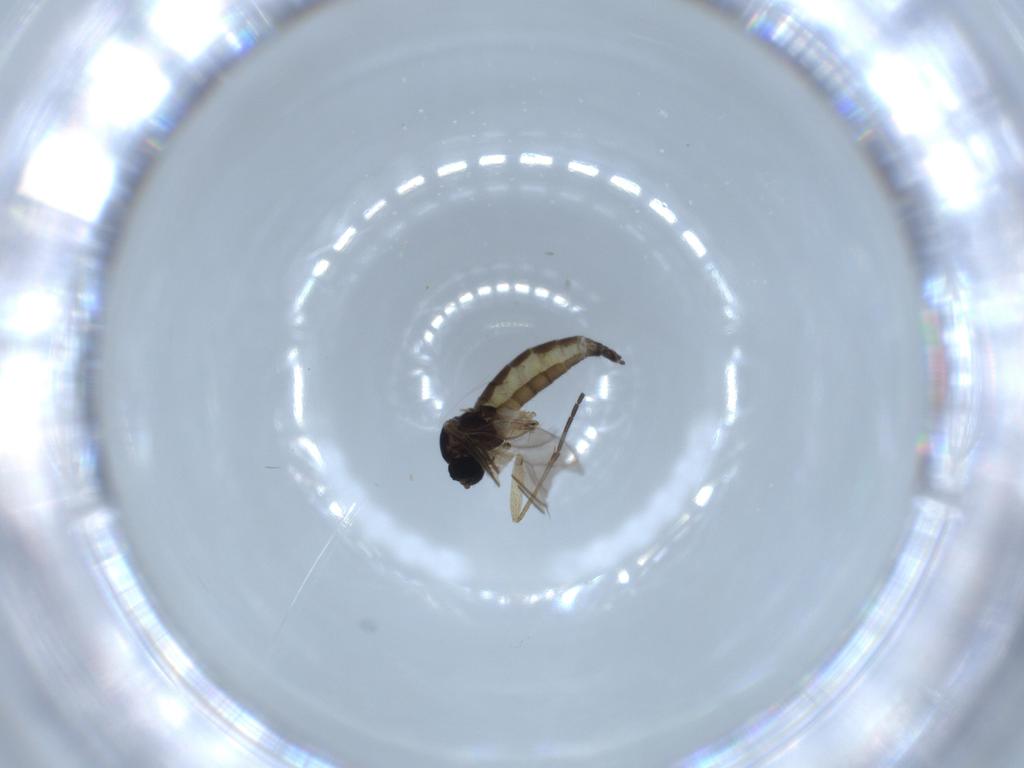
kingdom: Animalia
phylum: Arthropoda
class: Insecta
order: Diptera
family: Sciaridae
